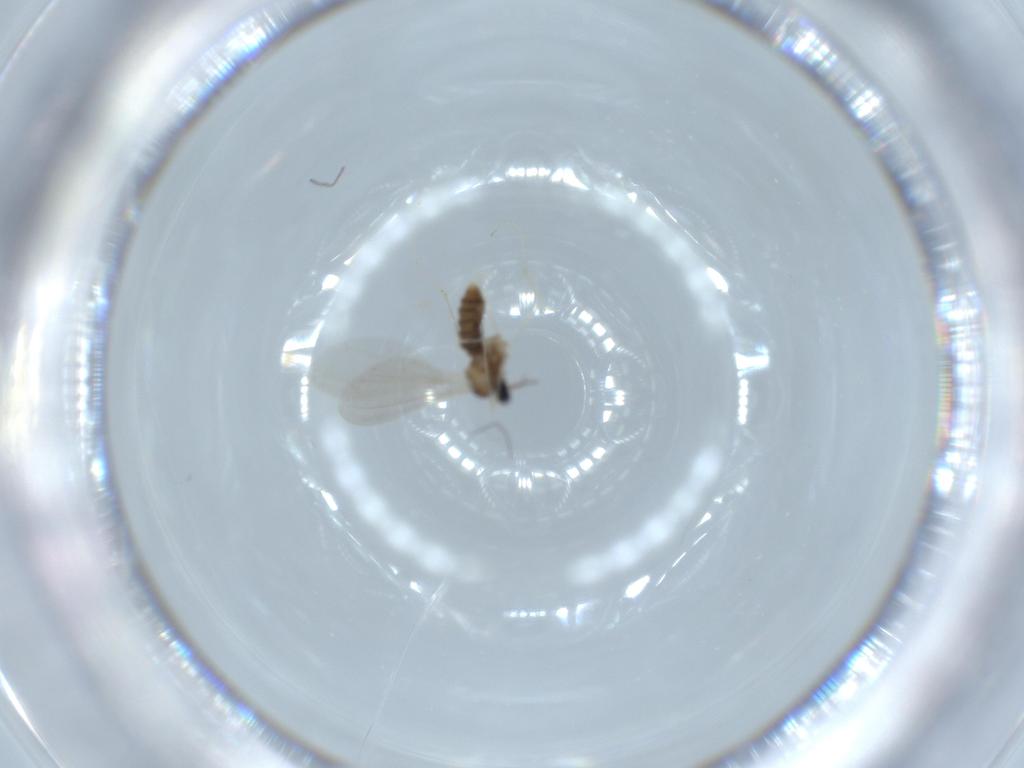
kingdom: Animalia
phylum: Arthropoda
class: Insecta
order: Diptera
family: Cecidomyiidae
